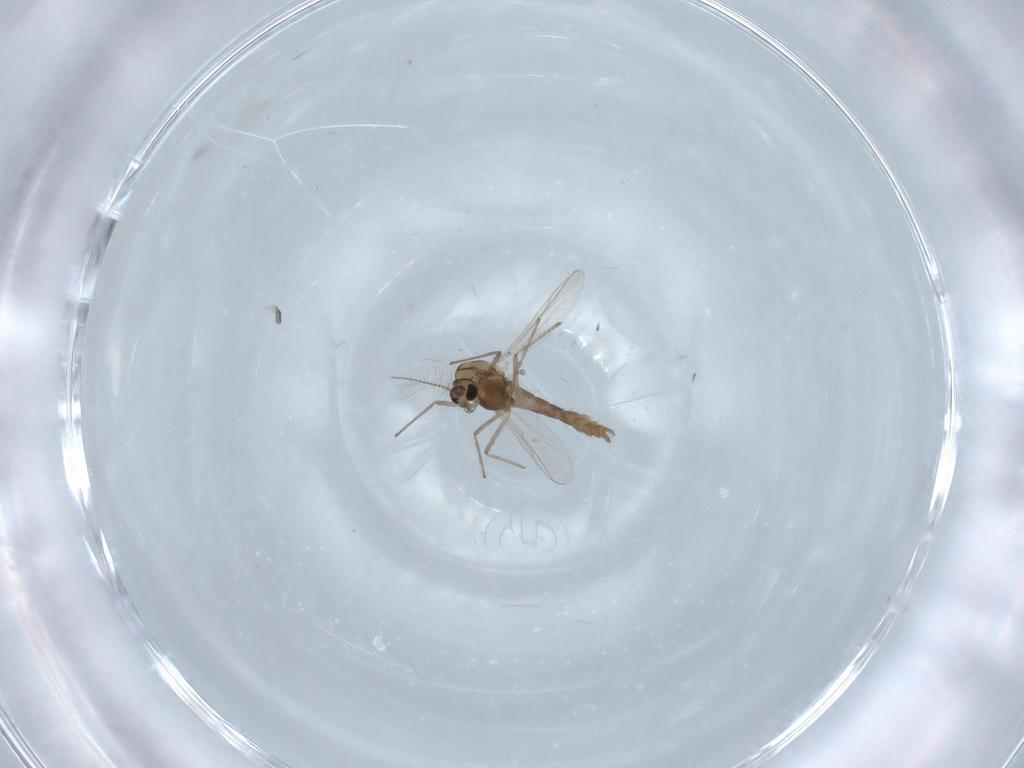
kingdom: Animalia
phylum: Arthropoda
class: Insecta
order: Diptera
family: Chironomidae
